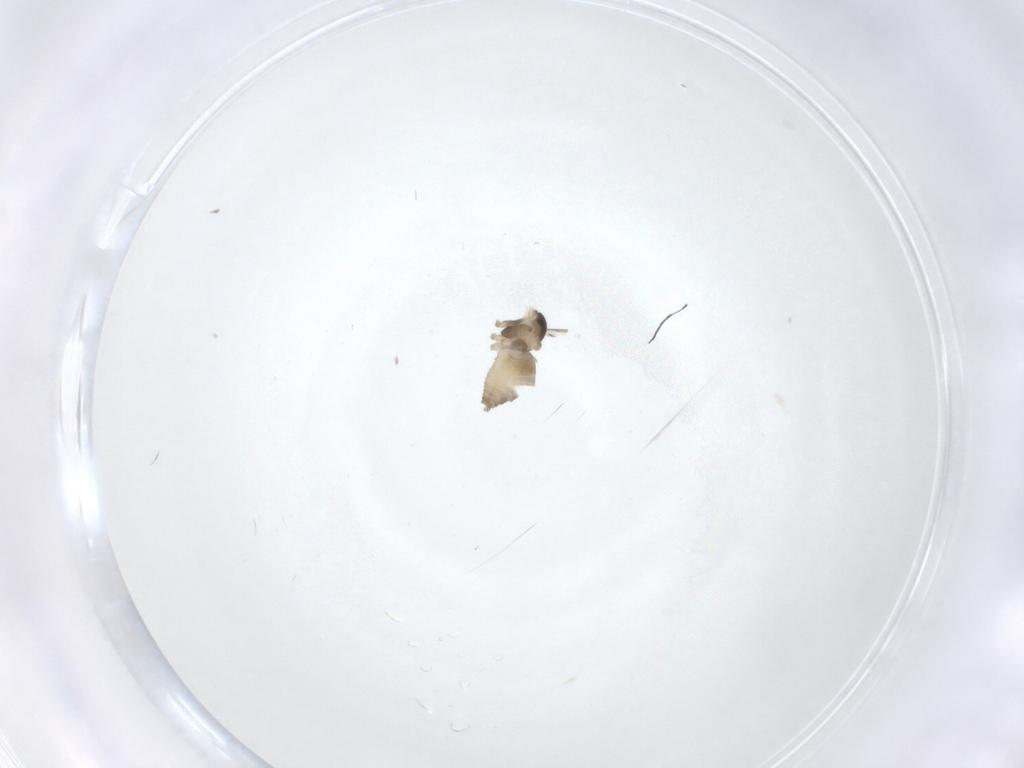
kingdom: Animalia
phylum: Arthropoda
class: Insecta
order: Diptera
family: Cecidomyiidae
